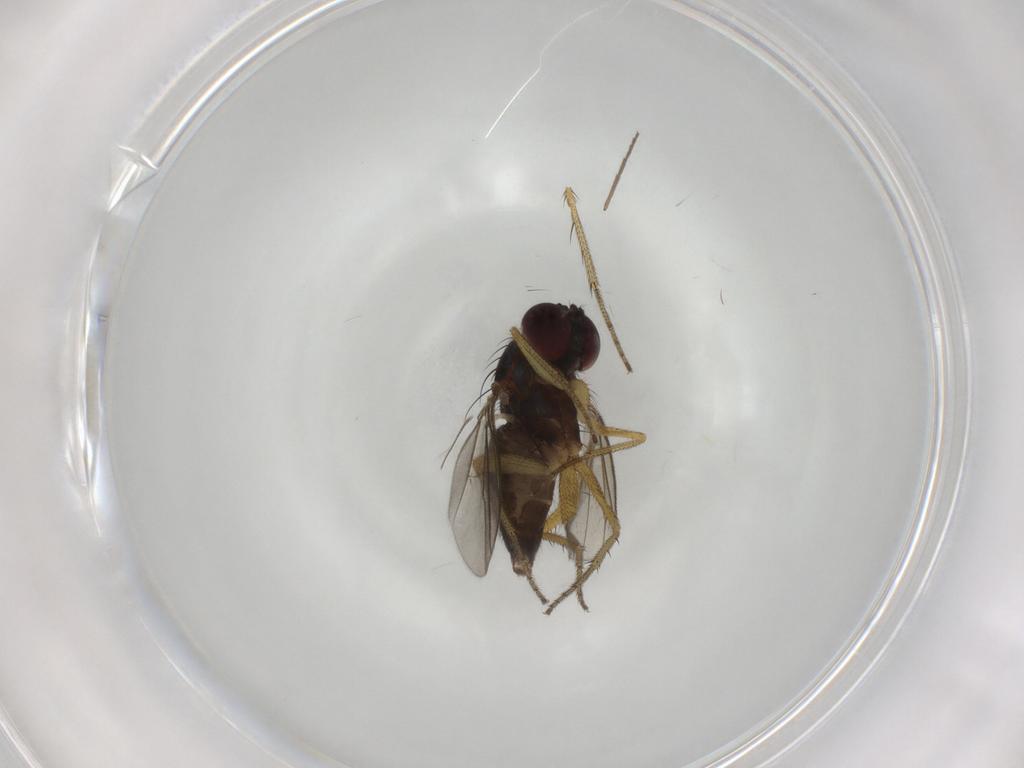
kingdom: Animalia
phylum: Arthropoda
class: Insecta
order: Diptera
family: Chironomidae
